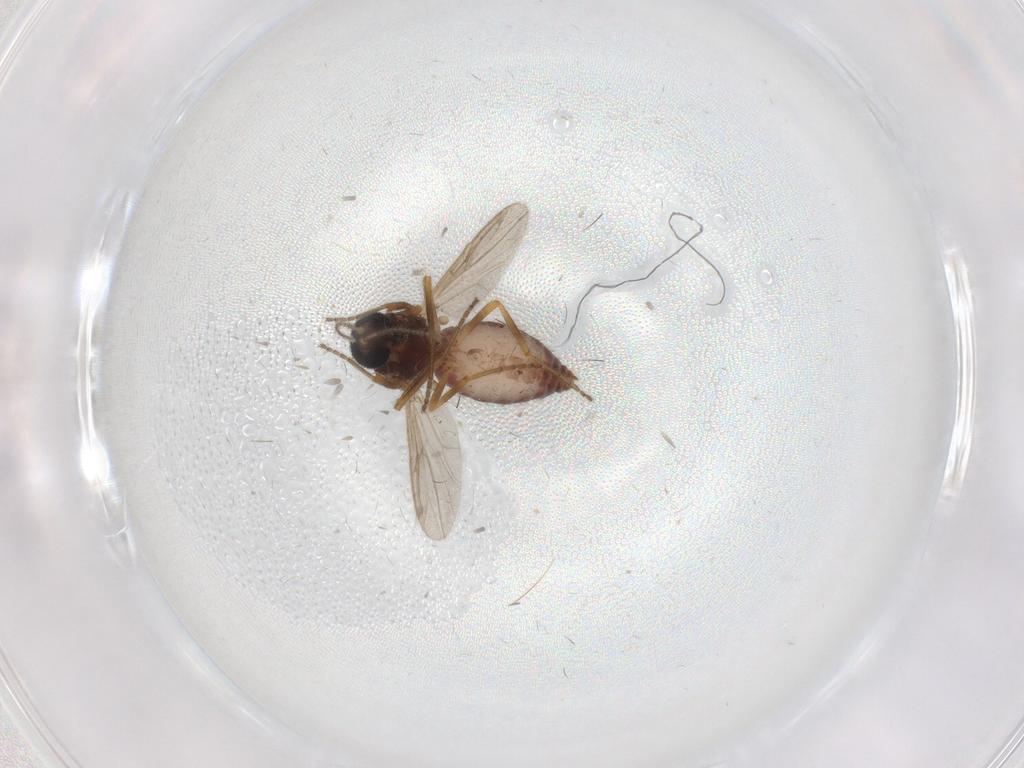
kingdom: Animalia
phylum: Arthropoda
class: Insecta
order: Diptera
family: Ceratopogonidae
